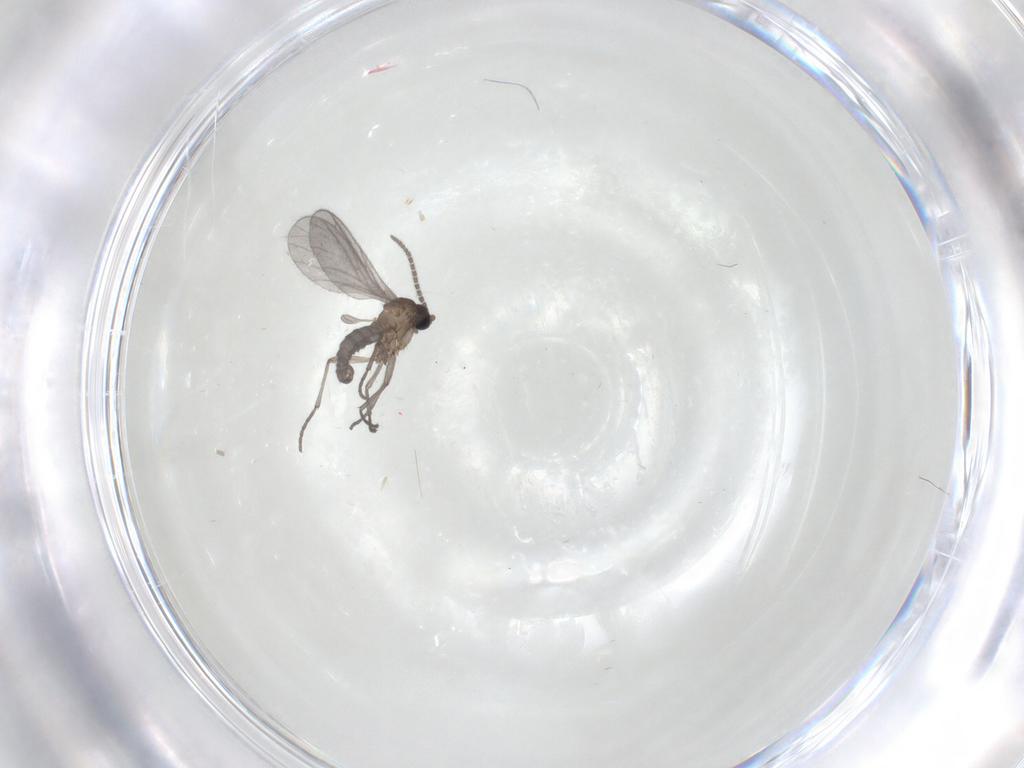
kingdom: Animalia
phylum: Arthropoda
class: Insecta
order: Diptera
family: Sciaridae
